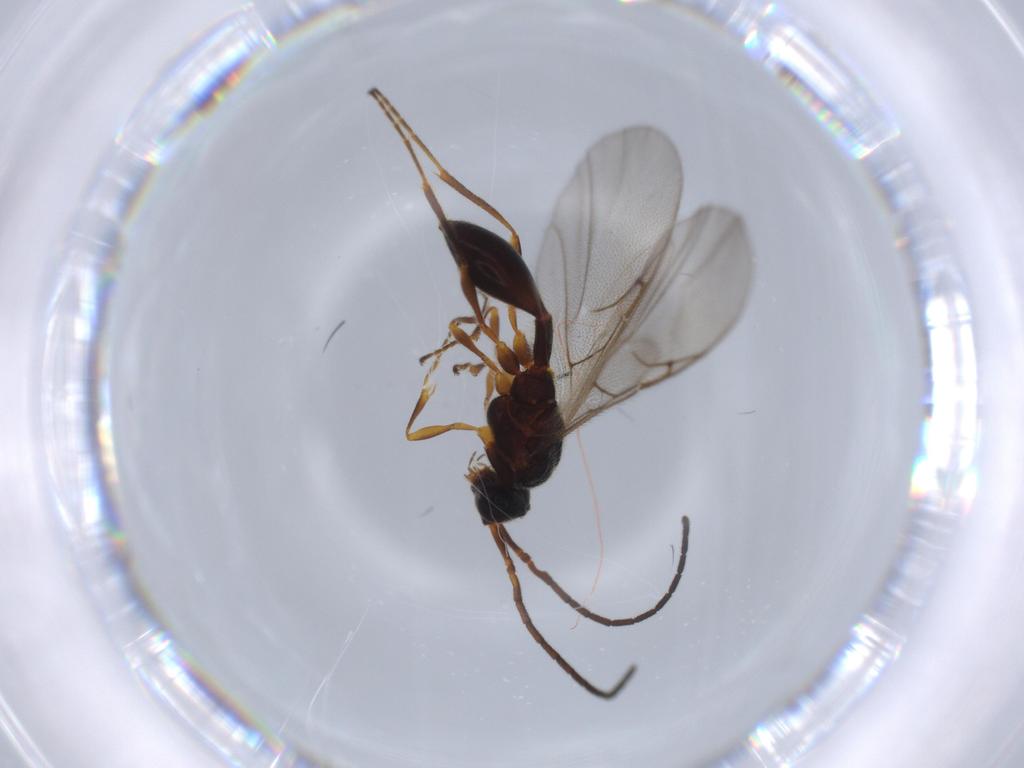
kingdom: Animalia
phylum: Arthropoda
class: Insecta
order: Hymenoptera
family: Diapriidae
